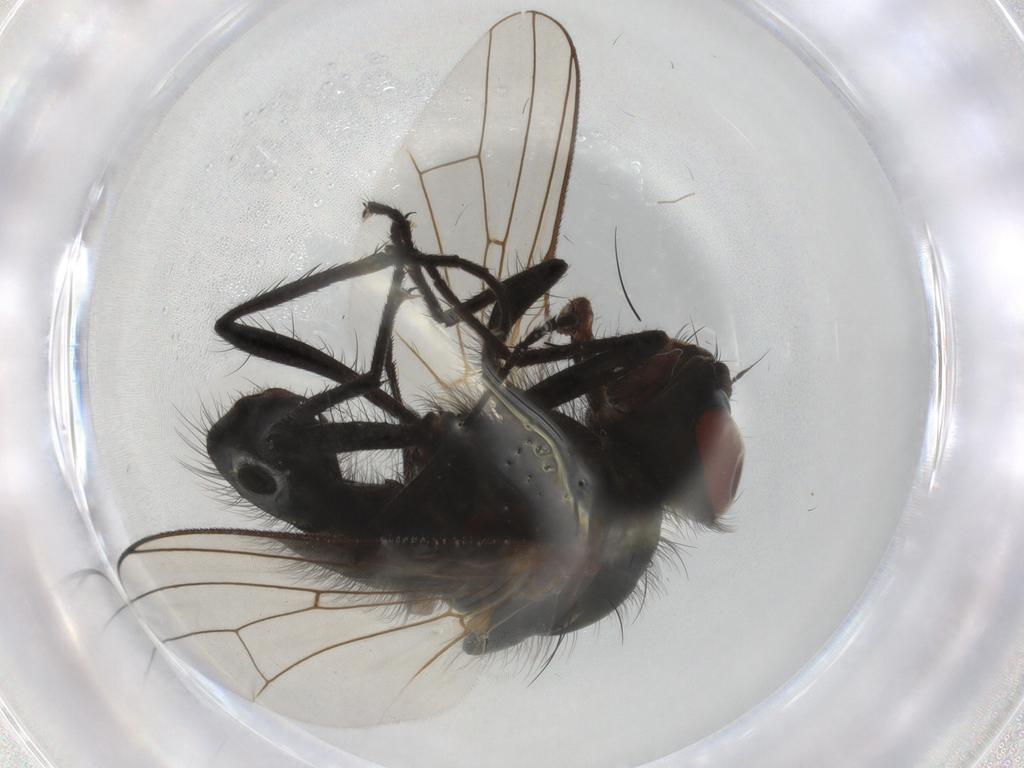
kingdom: Animalia
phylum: Arthropoda
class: Insecta
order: Diptera
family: Anthomyiidae
